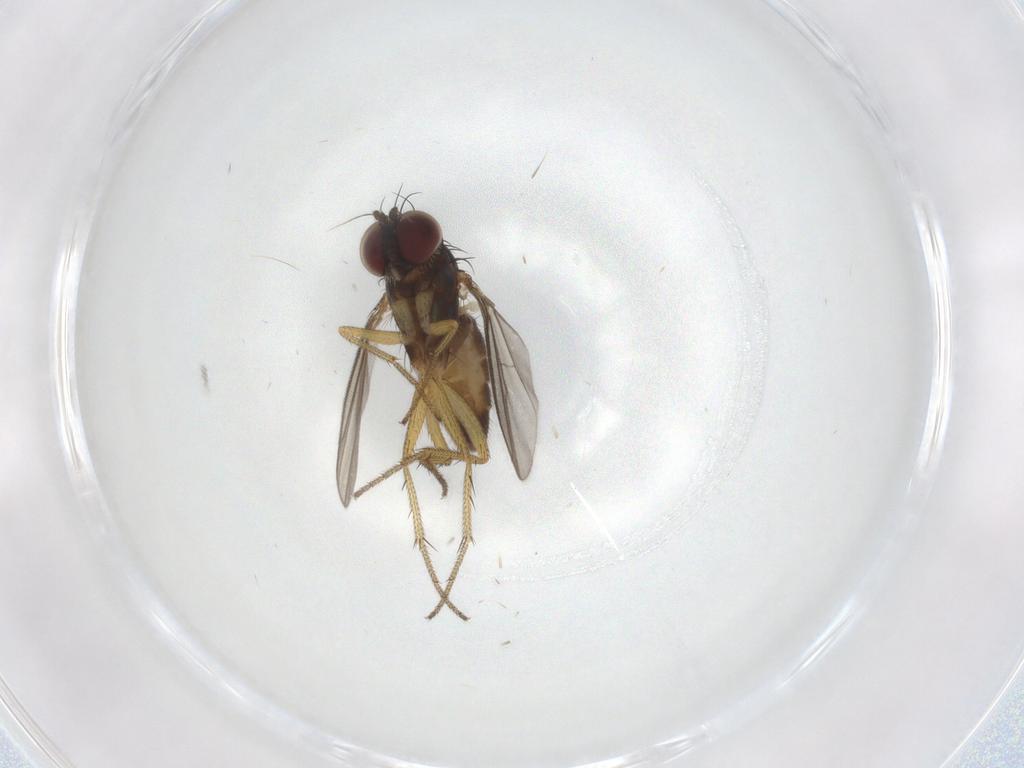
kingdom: Animalia
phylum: Arthropoda
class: Insecta
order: Diptera
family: Dolichopodidae
